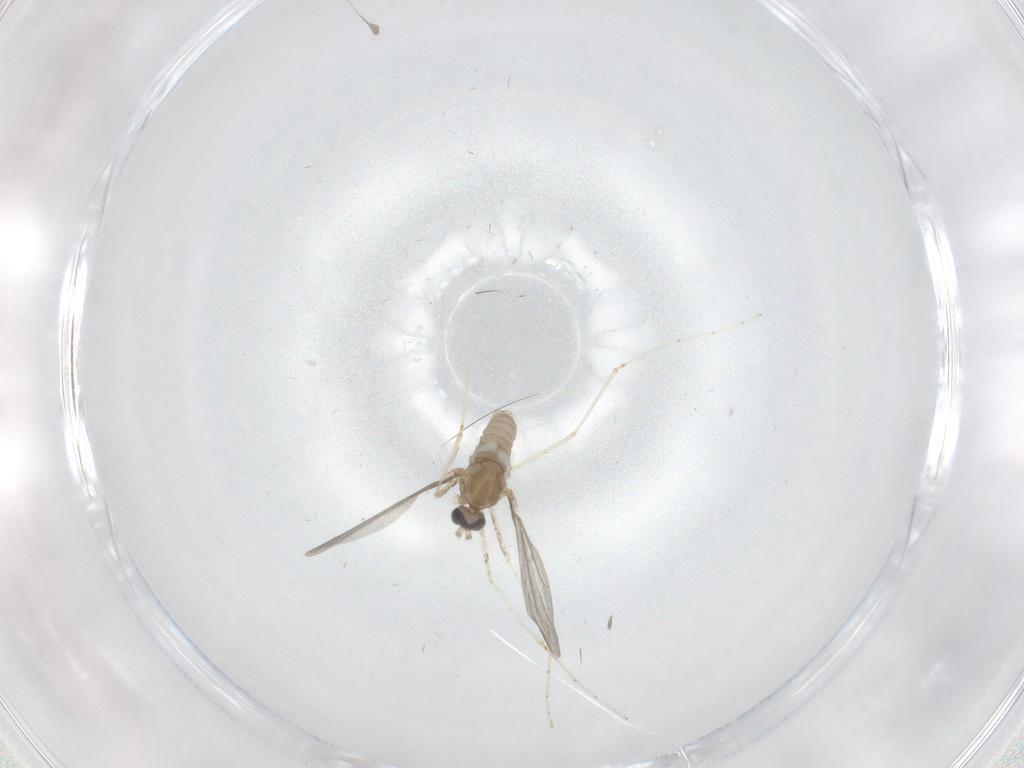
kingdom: Animalia
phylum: Arthropoda
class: Insecta
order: Diptera
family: Cecidomyiidae
